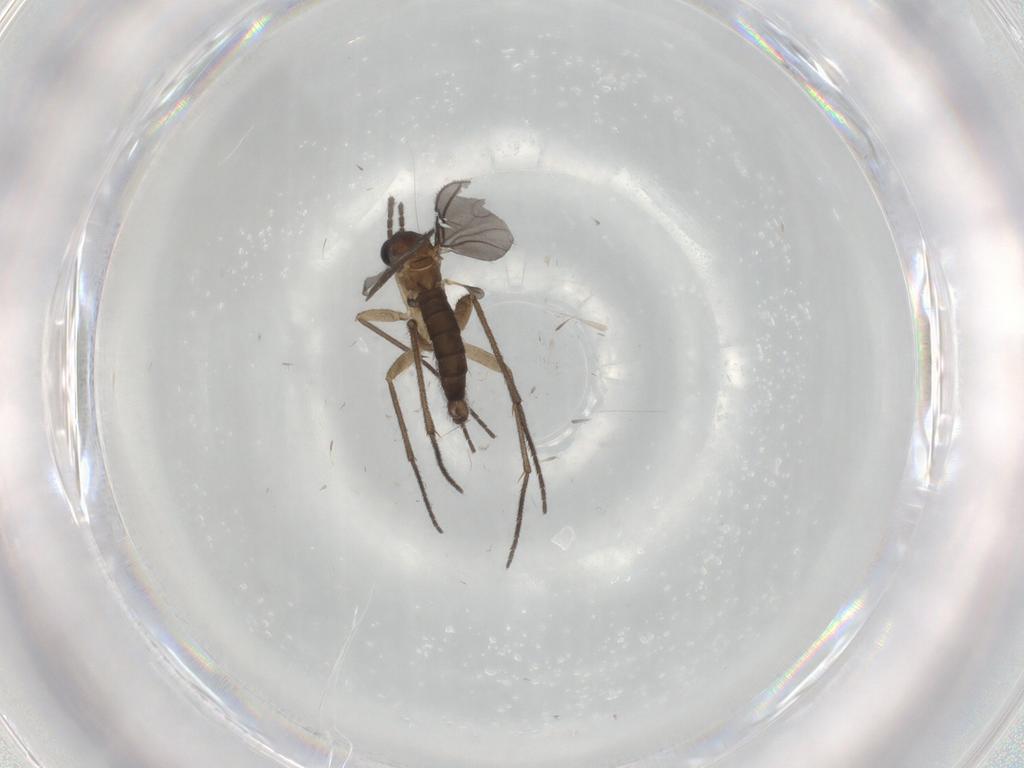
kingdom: Animalia
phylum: Arthropoda
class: Insecta
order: Diptera
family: Sciaridae
